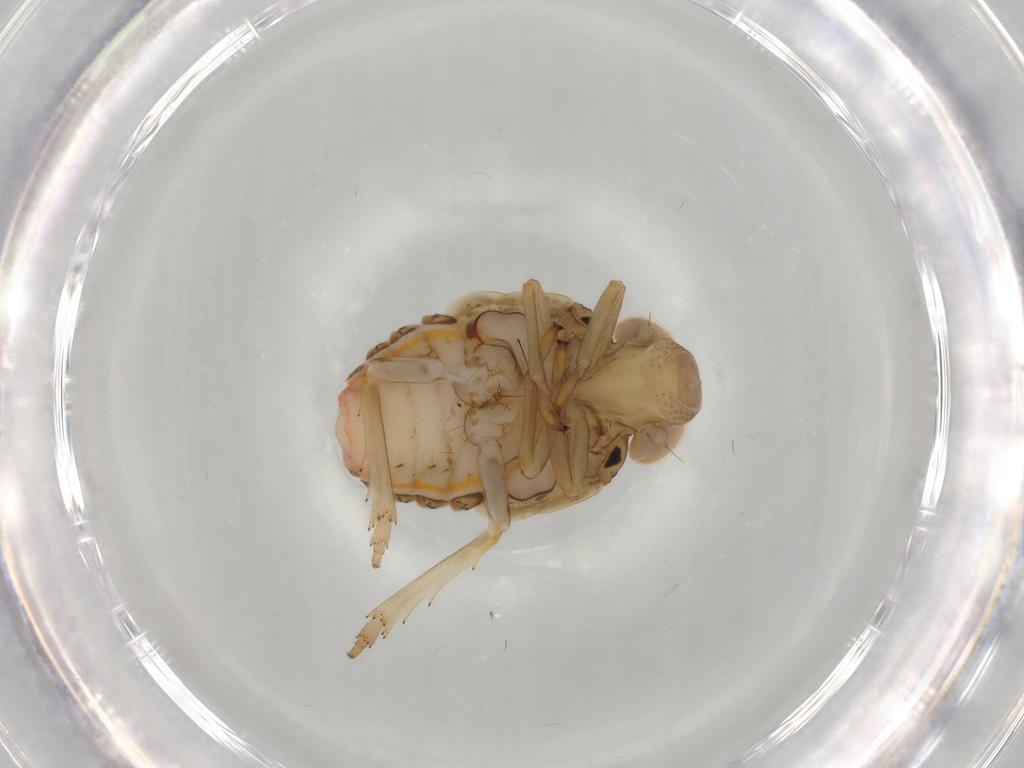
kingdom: Animalia
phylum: Arthropoda
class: Insecta
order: Hemiptera
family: Issidae
